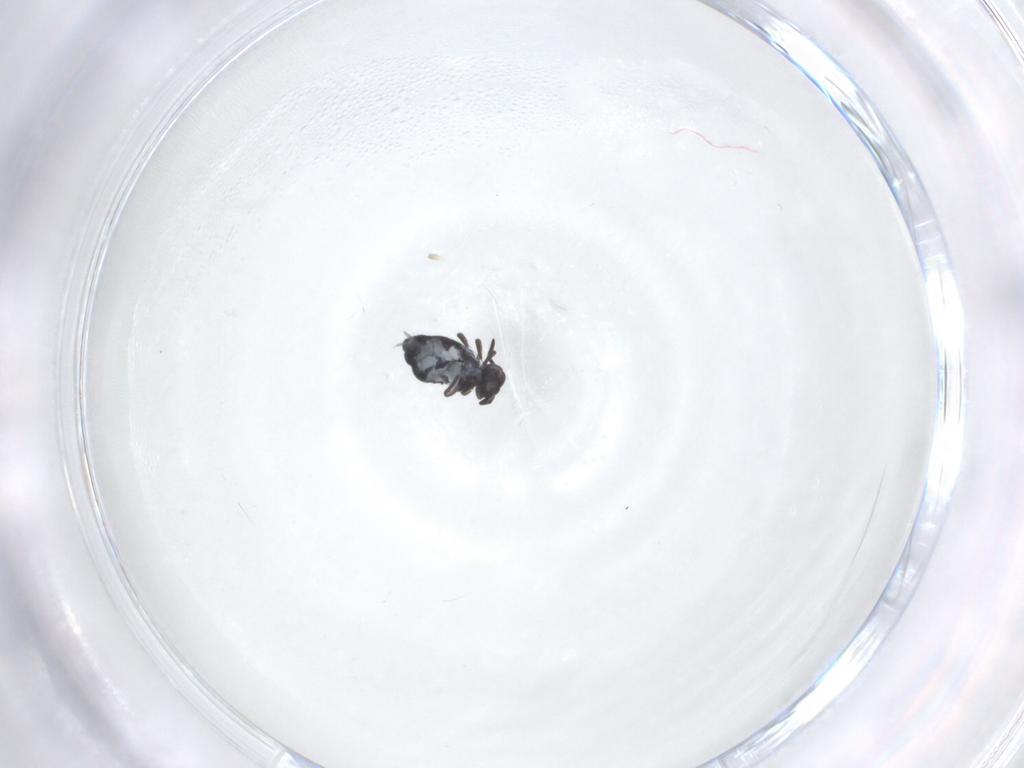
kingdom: Animalia
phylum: Arthropoda
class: Collembola
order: Symphypleona
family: Katiannidae
